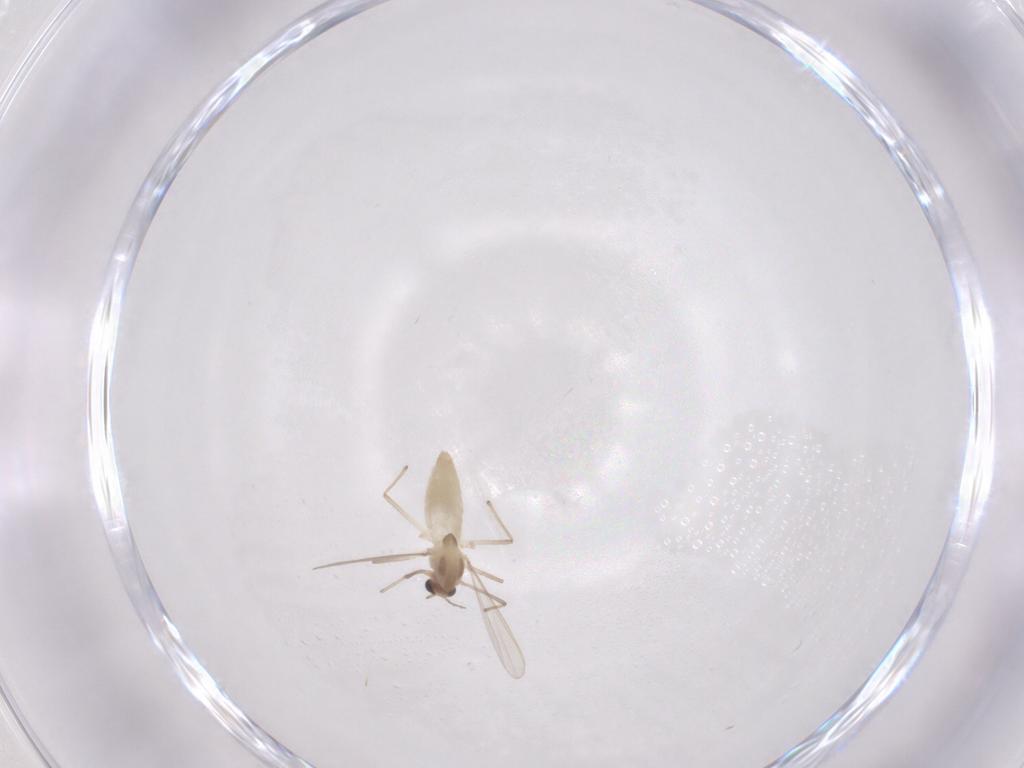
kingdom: Animalia
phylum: Arthropoda
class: Insecta
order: Diptera
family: Chironomidae
